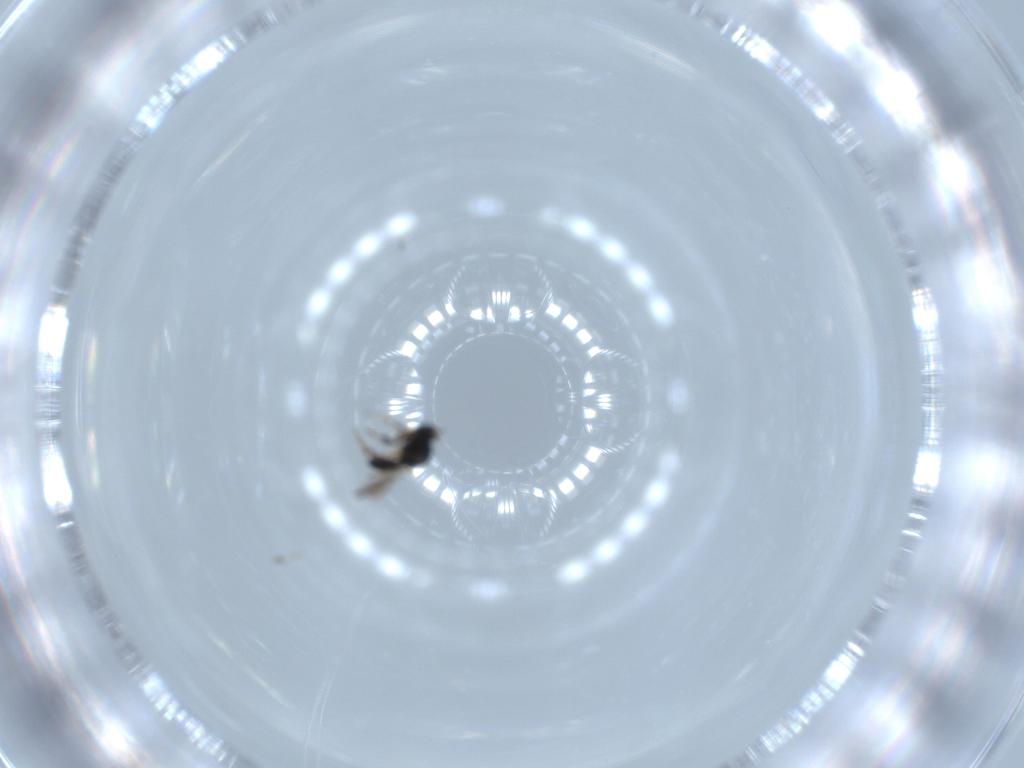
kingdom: Animalia
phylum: Arthropoda
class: Insecta
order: Hymenoptera
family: Platygastridae
